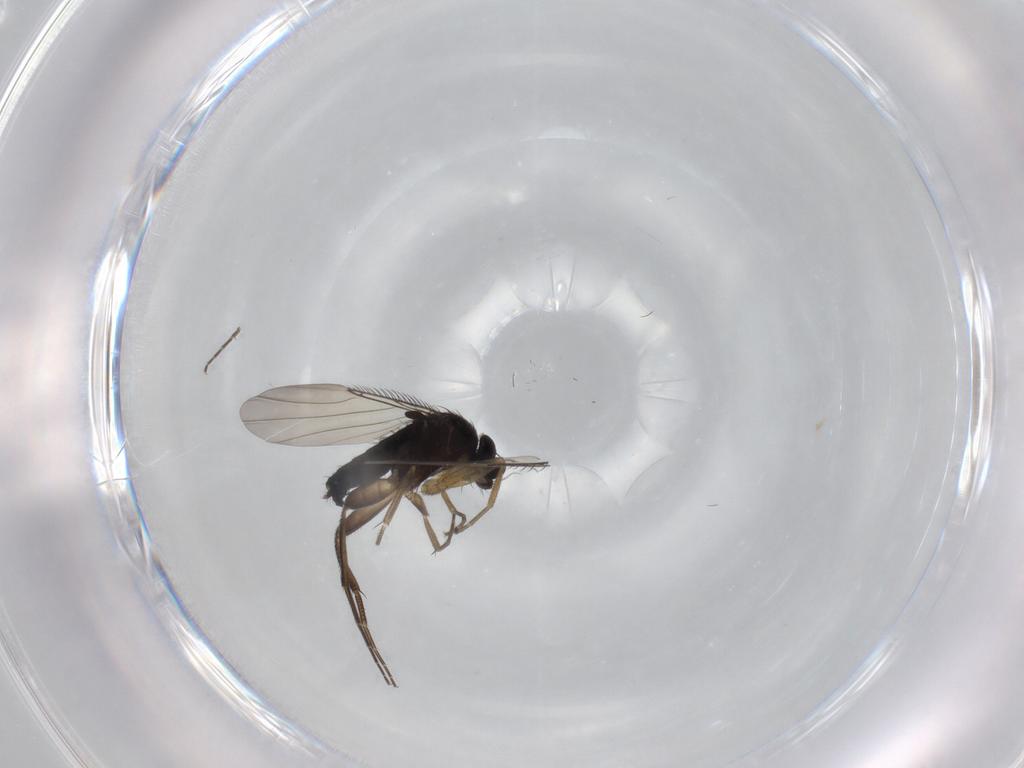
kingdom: Animalia
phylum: Arthropoda
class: Insecta
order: Diptera
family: Phoridae
